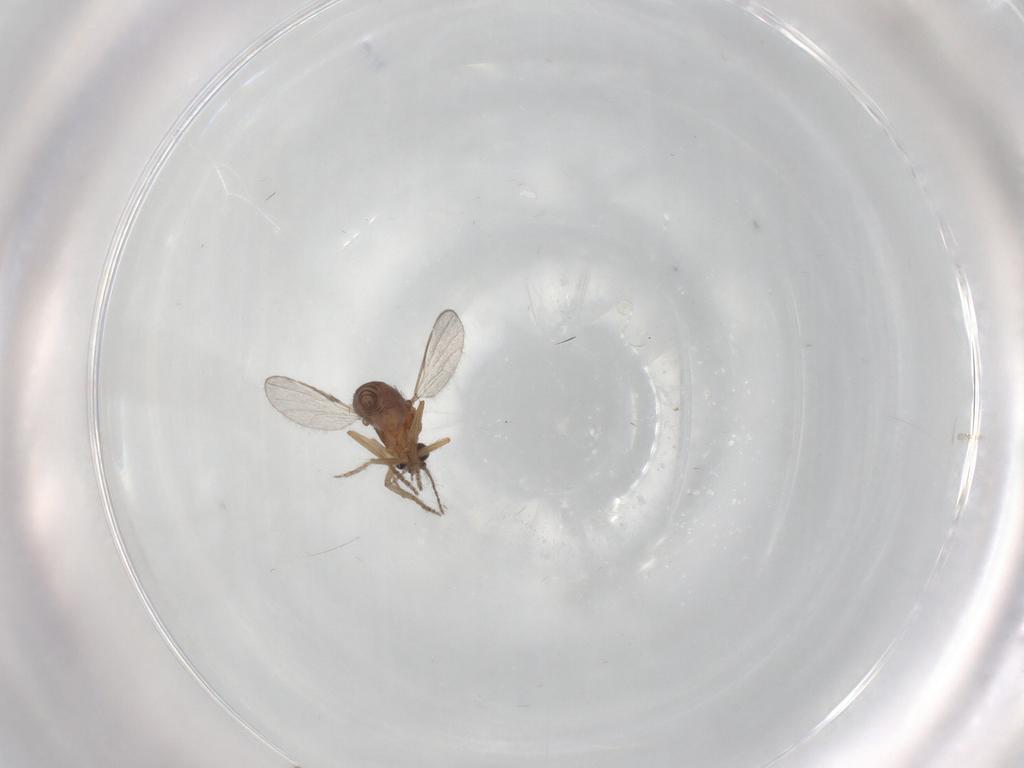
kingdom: Animalia
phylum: Arthropoda
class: Insecta
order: Diptera
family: Ceratopogonidae
